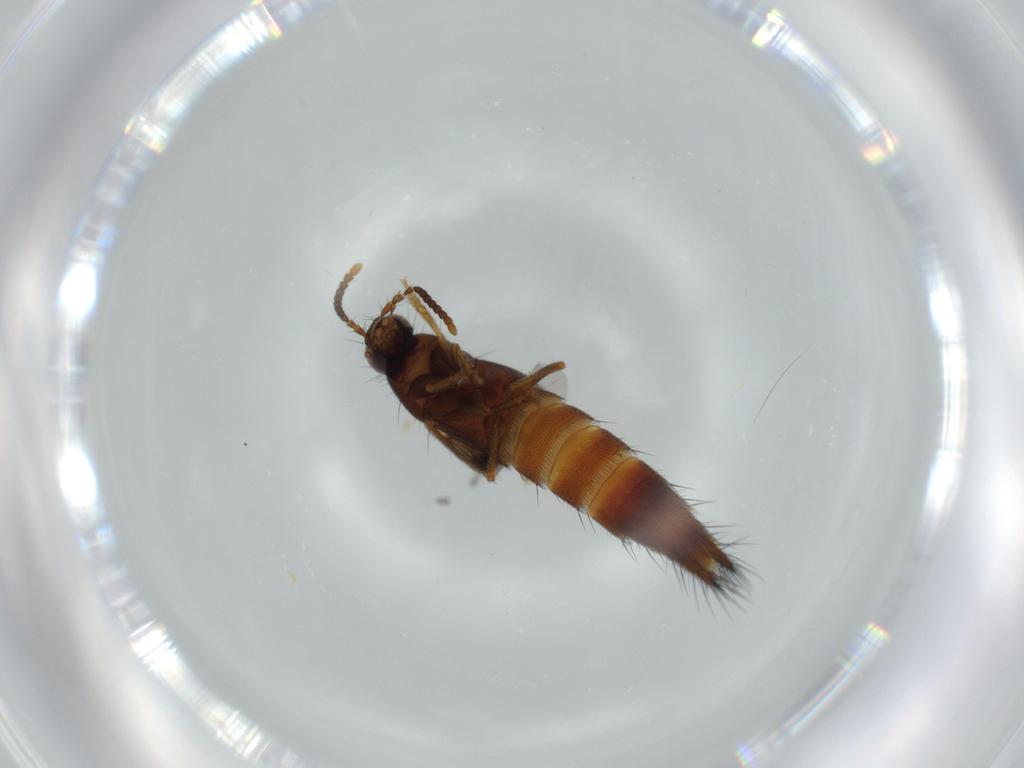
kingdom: Animalia
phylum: Arthropoda
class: Insecta
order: Coleoptera
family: Staphylinidae
